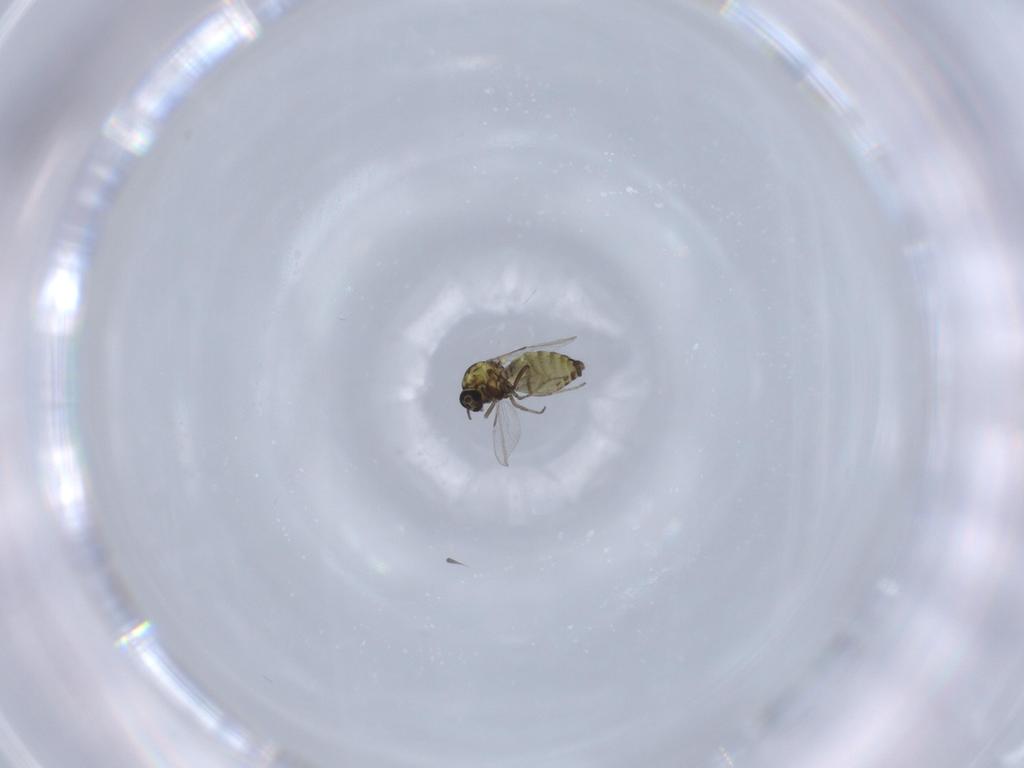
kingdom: Animalia
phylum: Arthropoda
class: Insecta
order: Diptera
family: Ceratopogonidae
